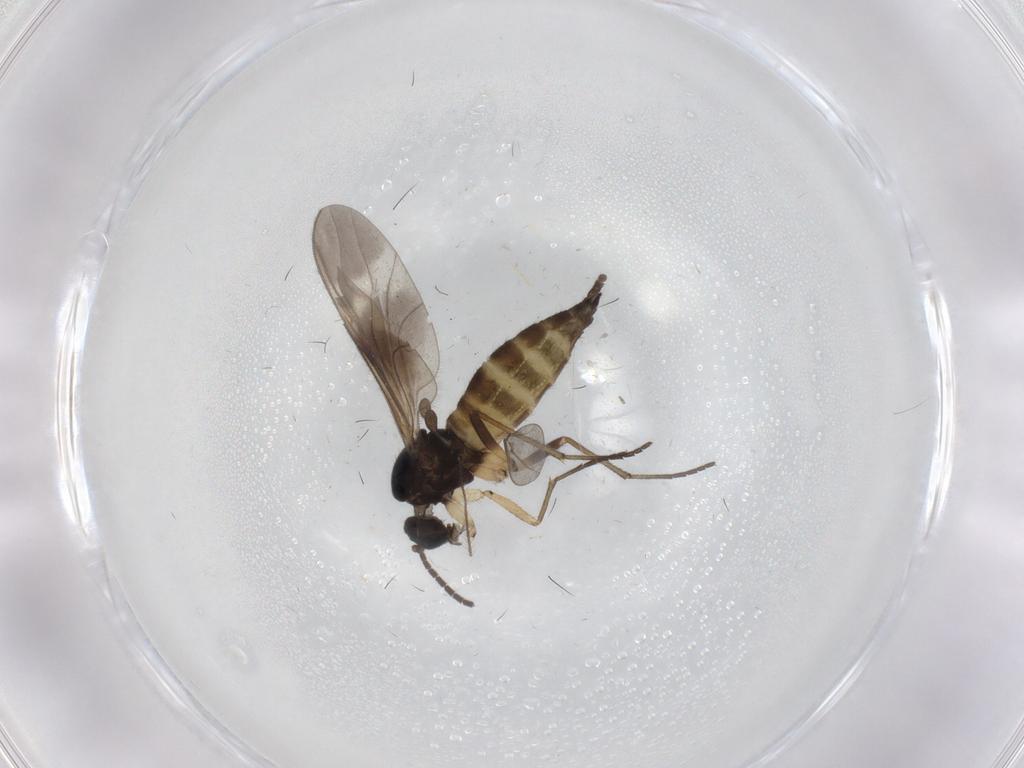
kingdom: Animalia
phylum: Arthropoda
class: Insecta
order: Diptera
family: Sciaridae
